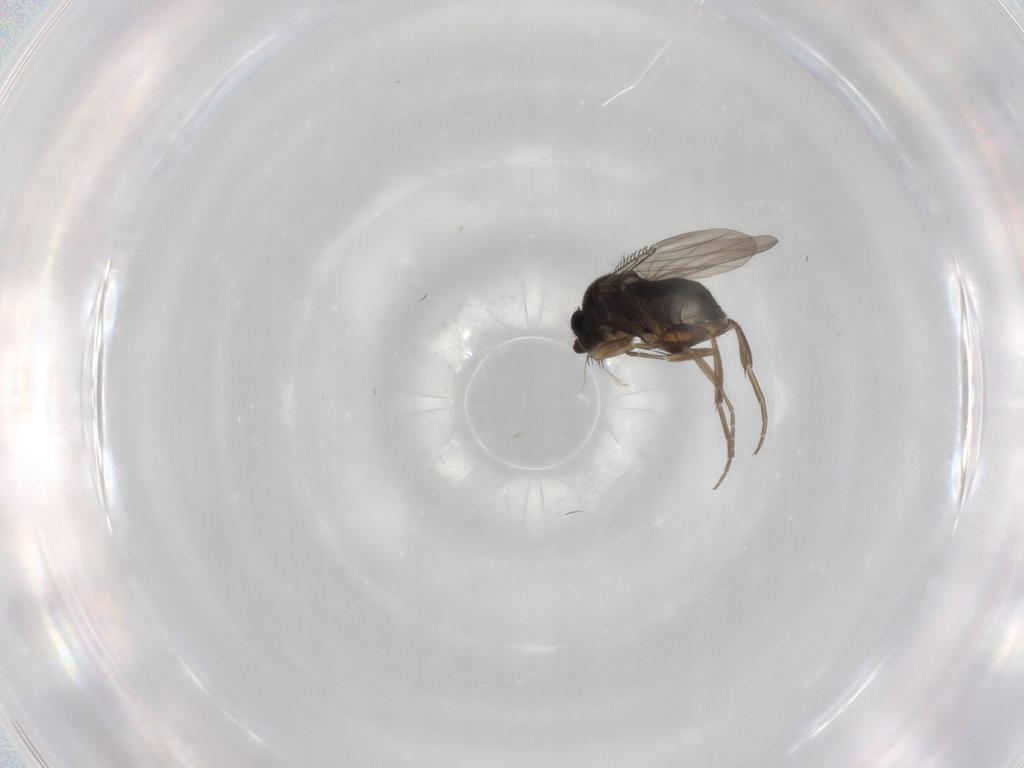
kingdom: Animalia
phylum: Arthropoda
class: Insecta
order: Diptera
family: Phoridae
